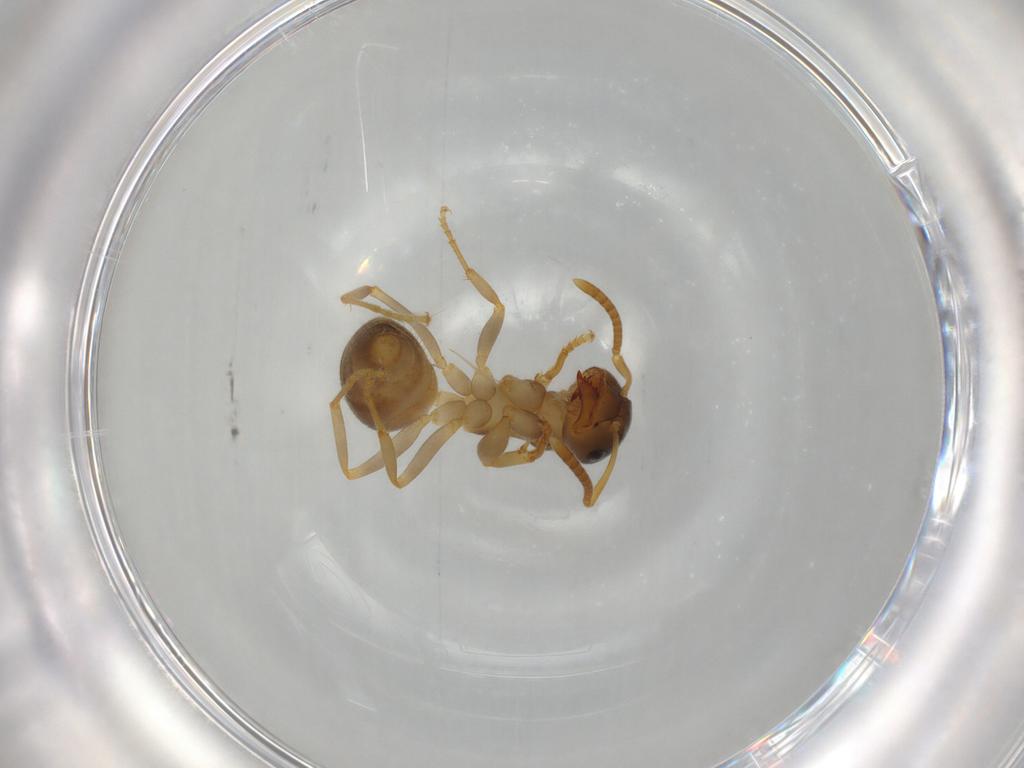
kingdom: Animalia
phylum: Arthropoda
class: Insecta
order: Hymenoptera
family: Formicidae
